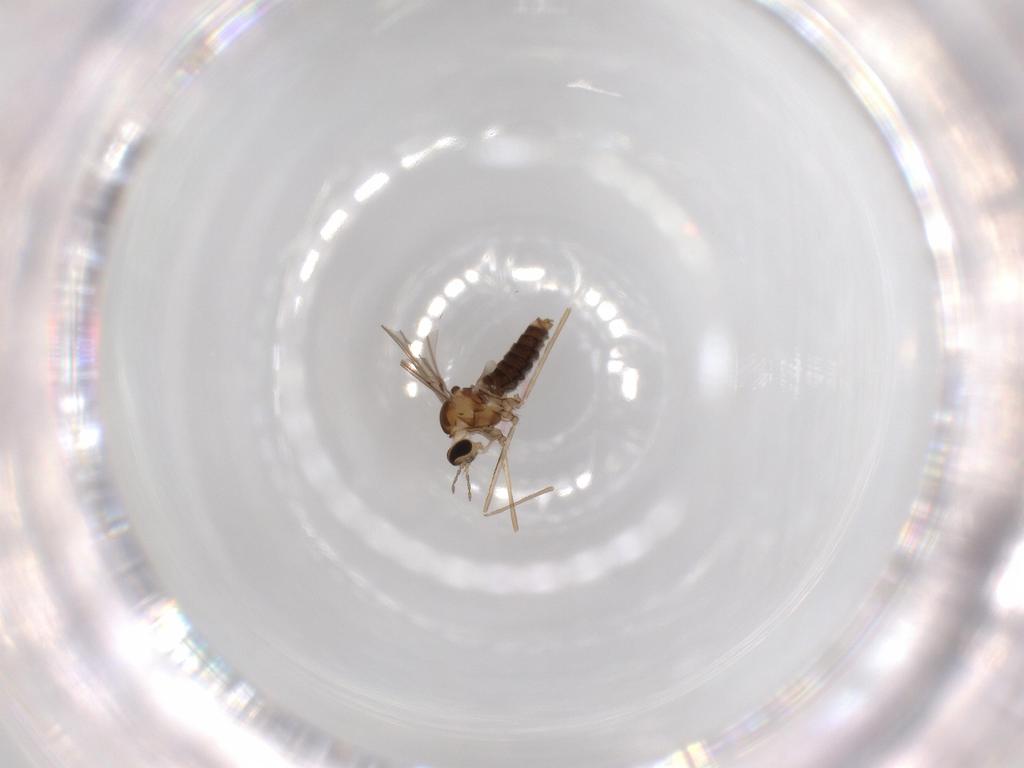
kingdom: Animalia
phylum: Arthropoda
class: Insecta
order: Diptera
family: Cecidomyiidae
